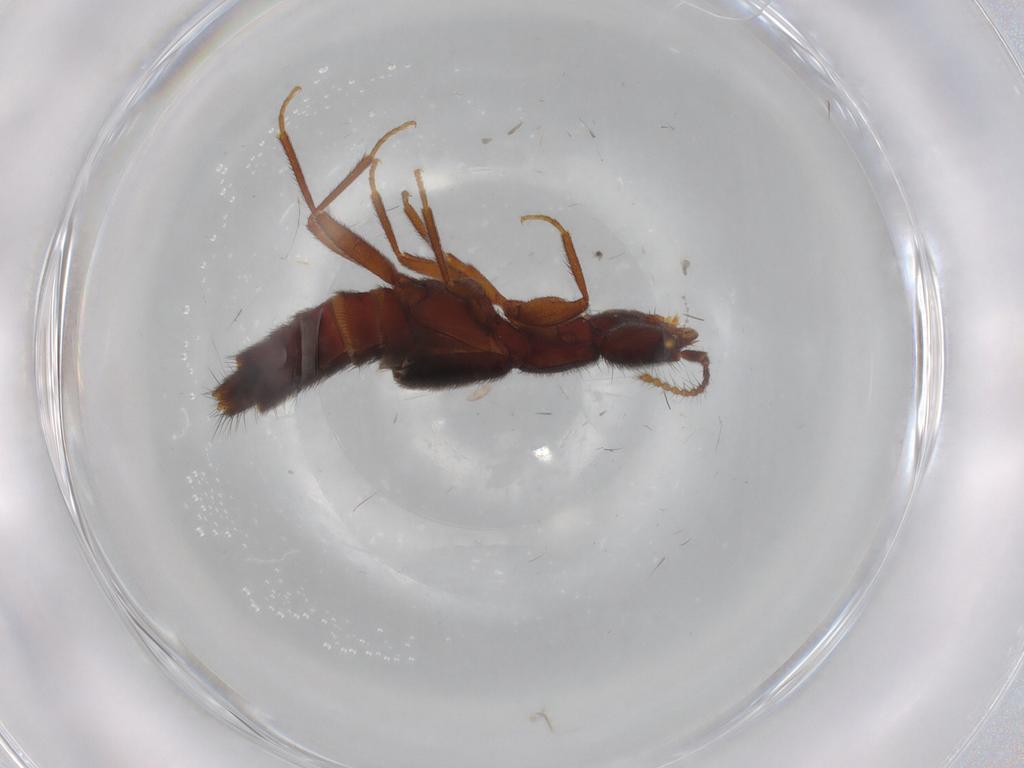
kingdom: Animalia
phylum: Arthropoda
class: Insecta
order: Coleoptera
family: Staphylinidae
